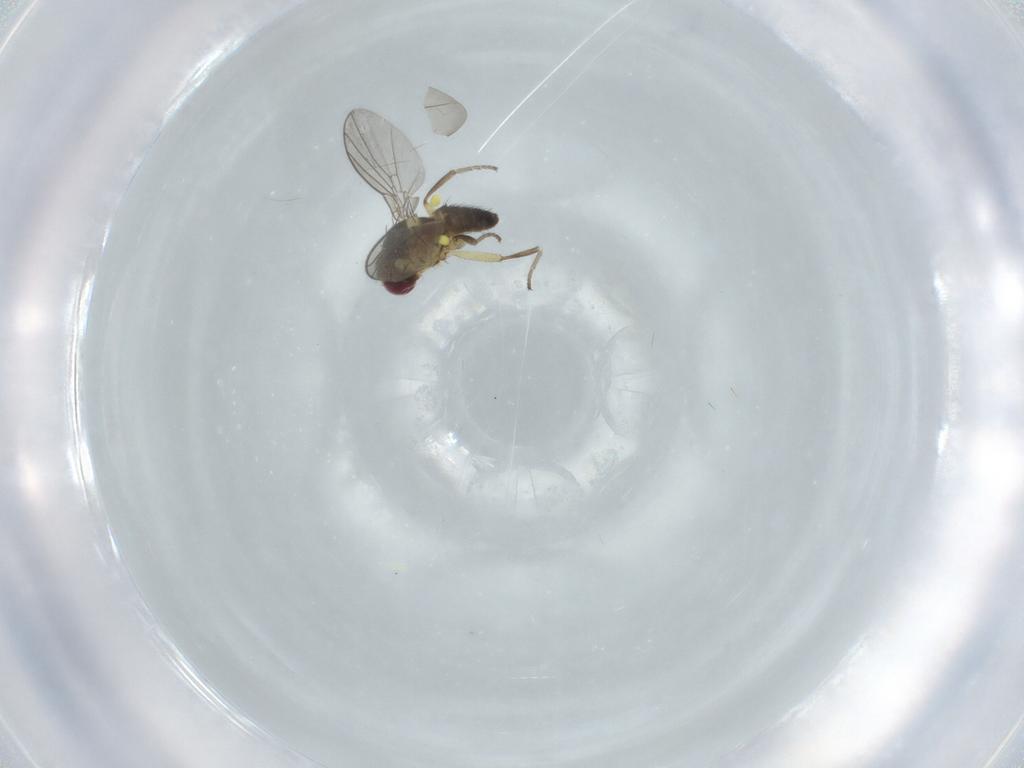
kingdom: Animalia
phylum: Arthropoda
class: Insecta
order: Diptera
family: Agromyzidae
